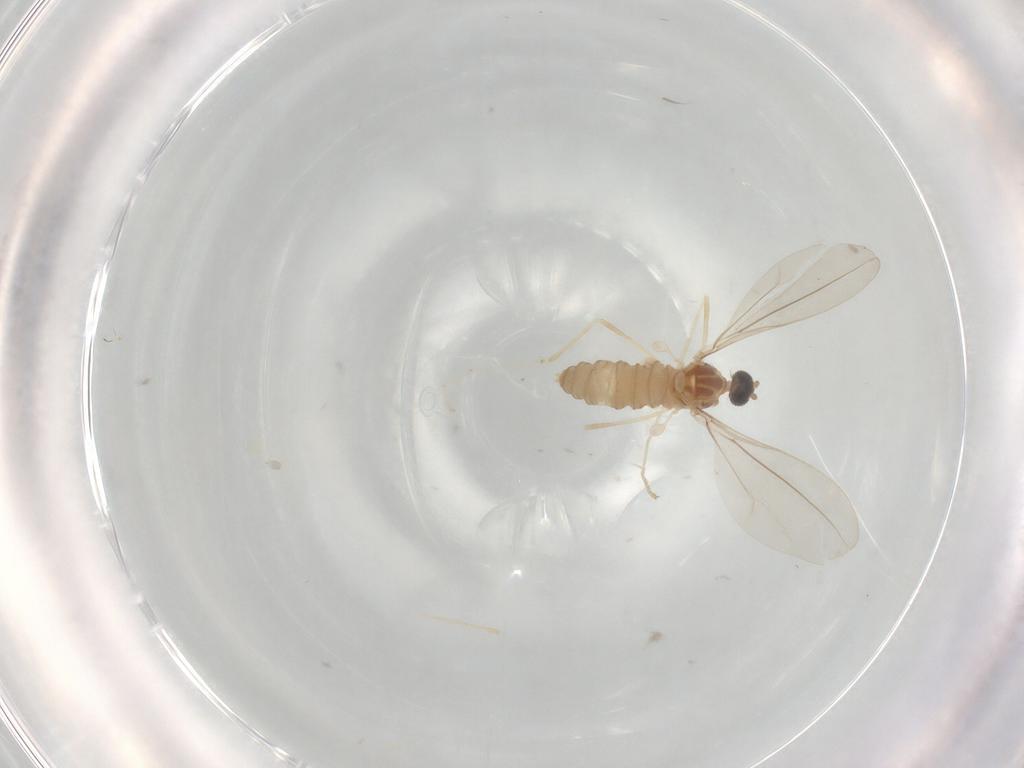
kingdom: Animalia
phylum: Arthropoda
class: Insecta
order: Diptera
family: Cecidomyiidae
